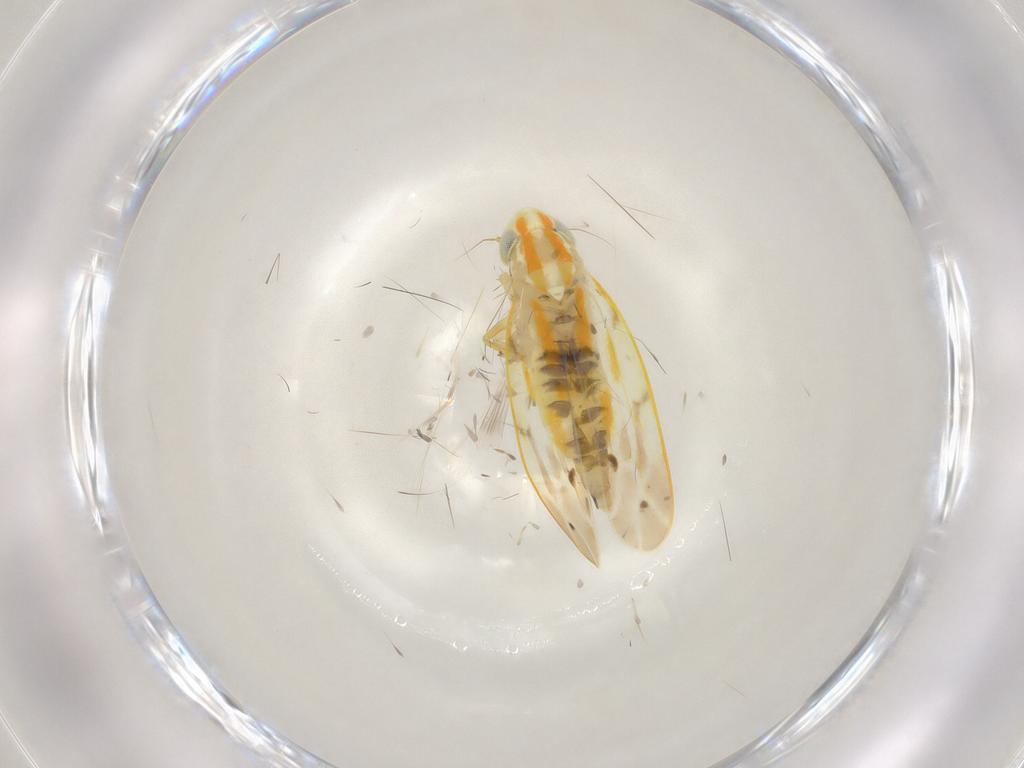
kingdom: Animalia
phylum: Arthropoda
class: Insecta
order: Hemiptera
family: Cicadellidae
